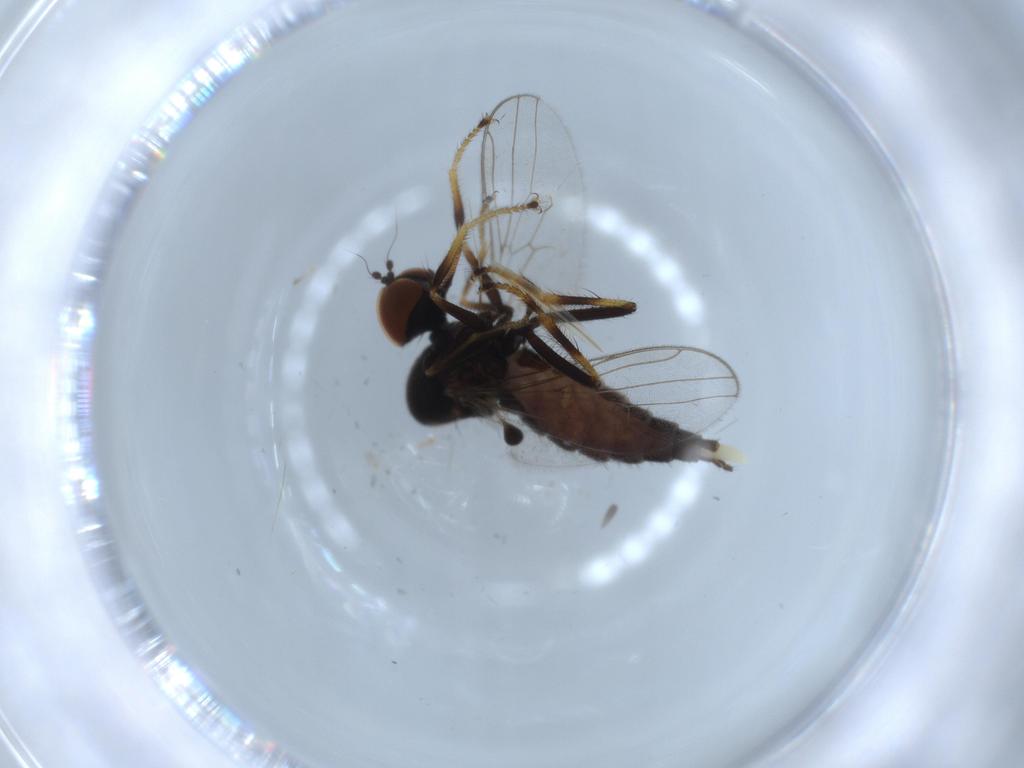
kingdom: Animalia
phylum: Arthropoda
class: Insecta
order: Diptera
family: Hybotidae
